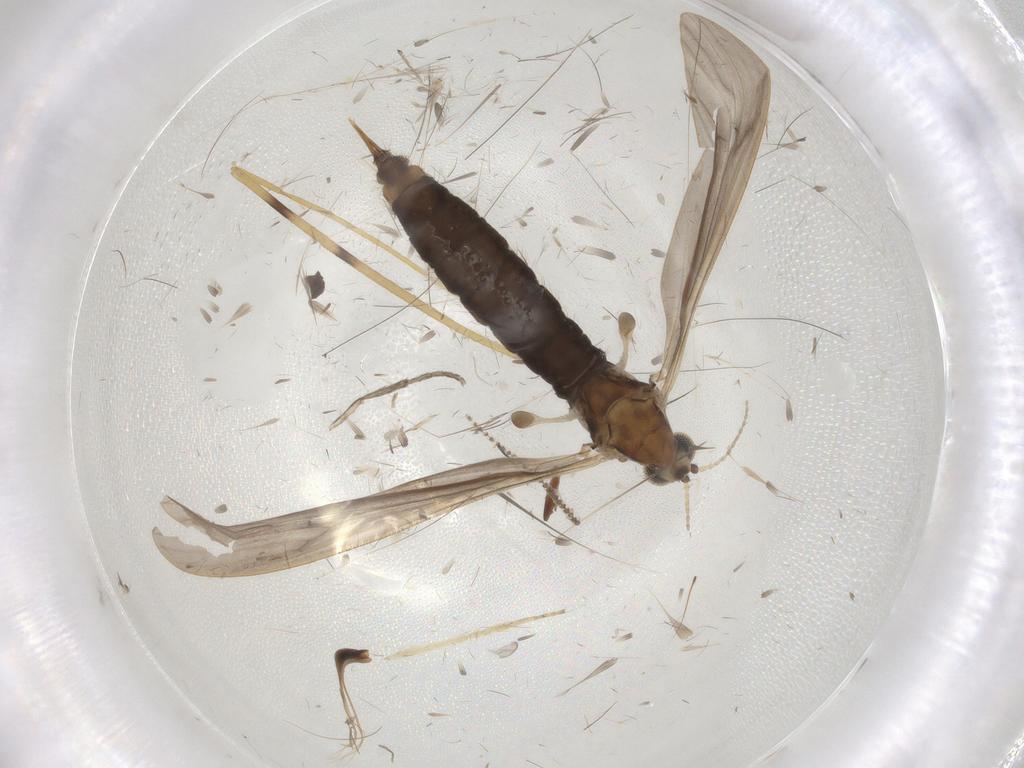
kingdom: Animalia
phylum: Arthropoda
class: Insecta
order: Diptera
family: Limoniidae
